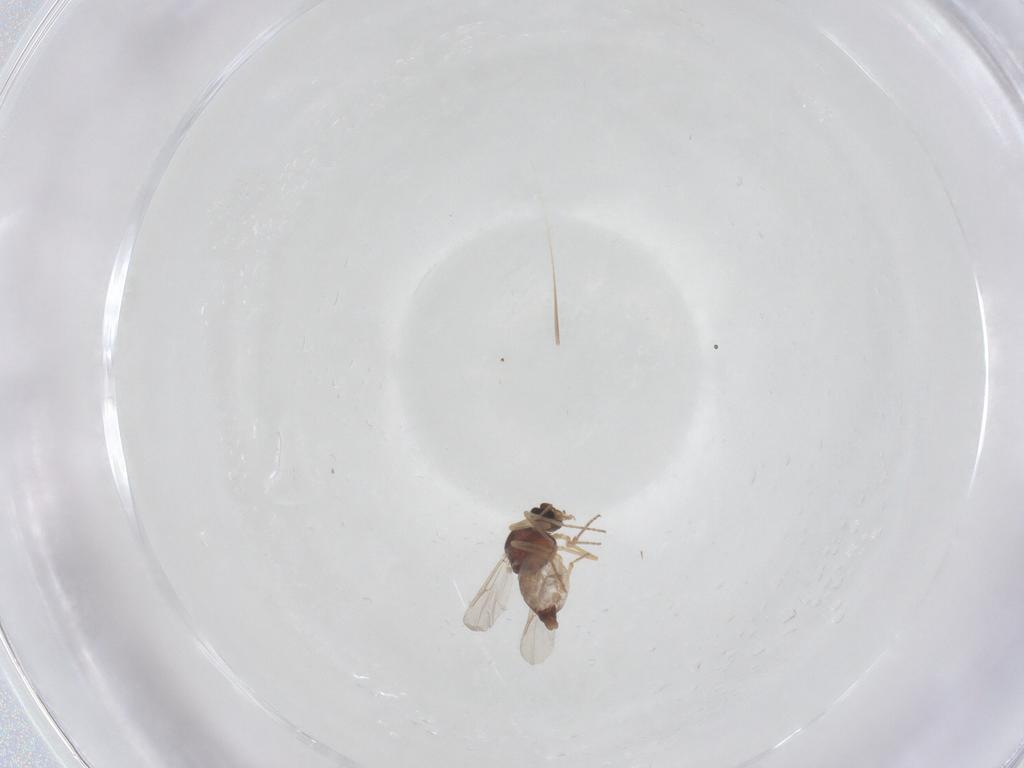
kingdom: Animalia
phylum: Arthropoda
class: Insecta
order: Diptera
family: Ceratopogonidae
